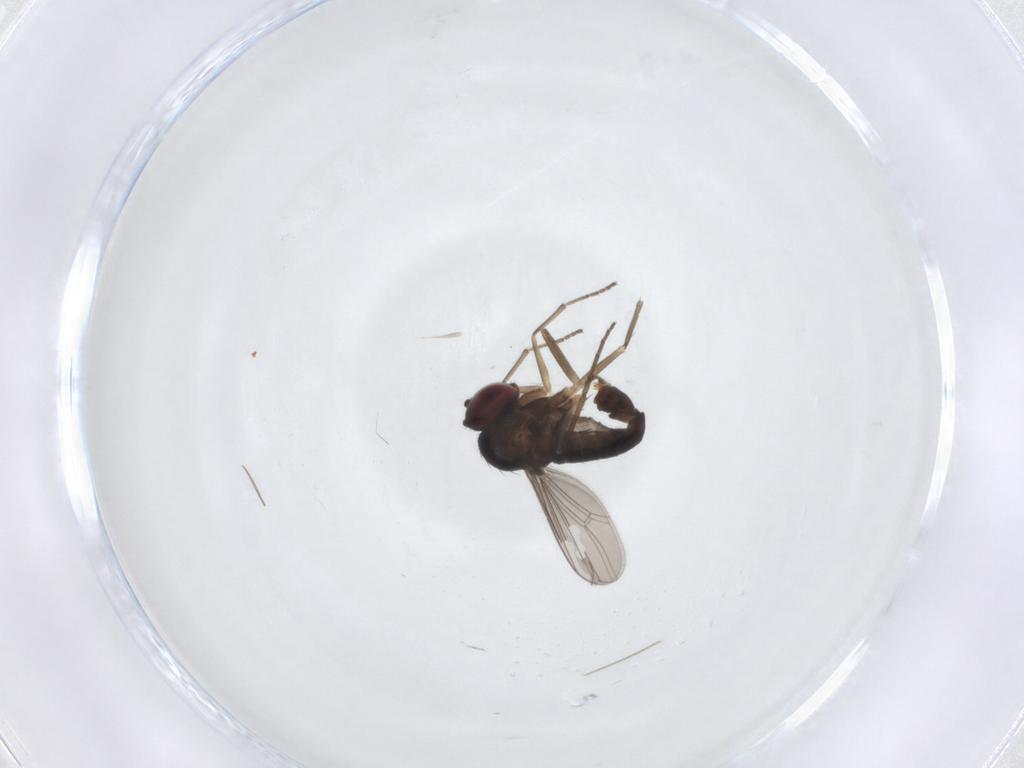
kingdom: Animalia
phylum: Arthropoda
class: Insecta
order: Diptera
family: Dolichopodidae
